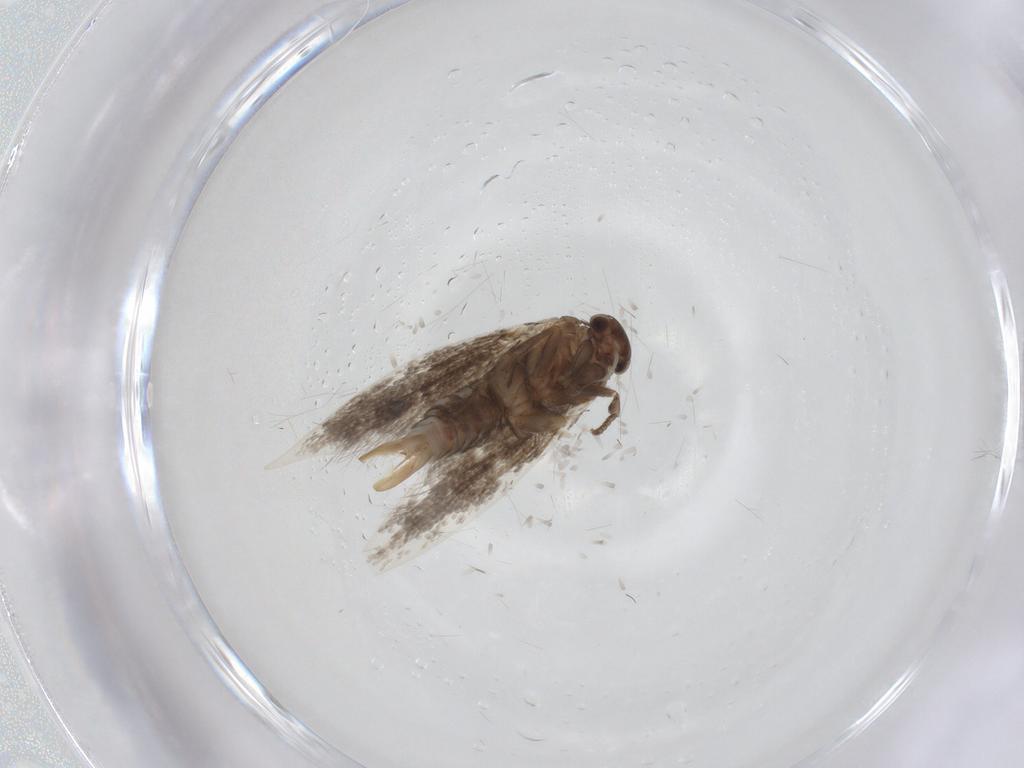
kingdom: Animalia
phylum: Arthropoda
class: Insecta
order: Lepidoptera
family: Elachistidae
